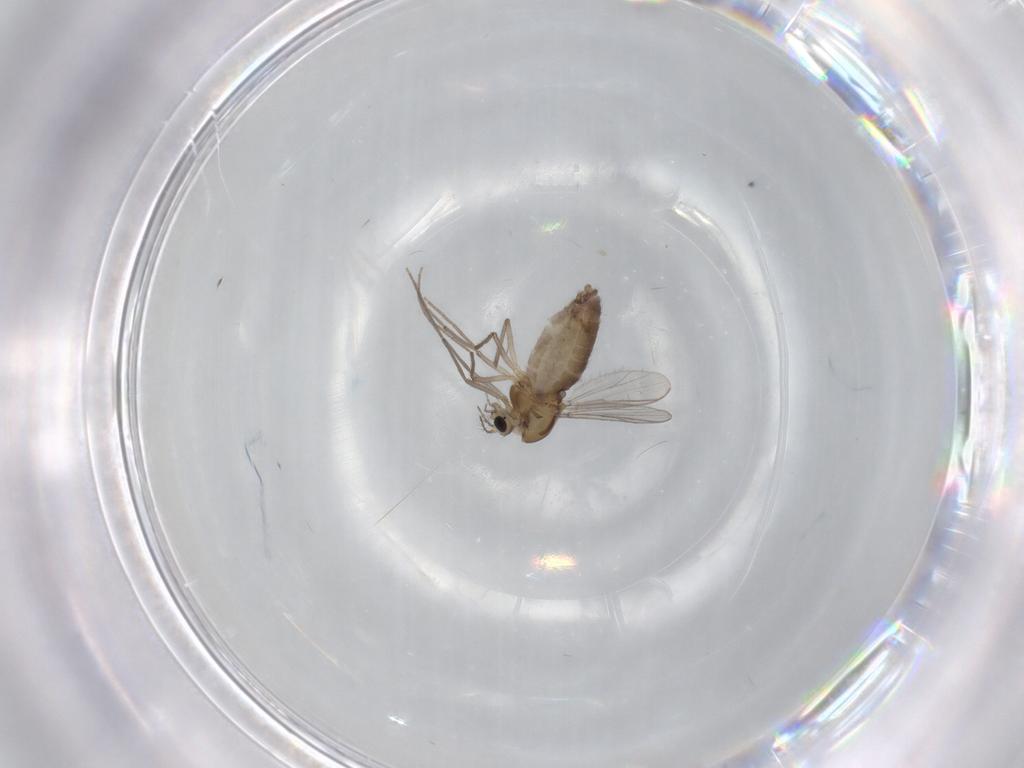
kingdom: Animalia
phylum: Arthropoda
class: Insecta
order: Diptera
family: Chironomidae
